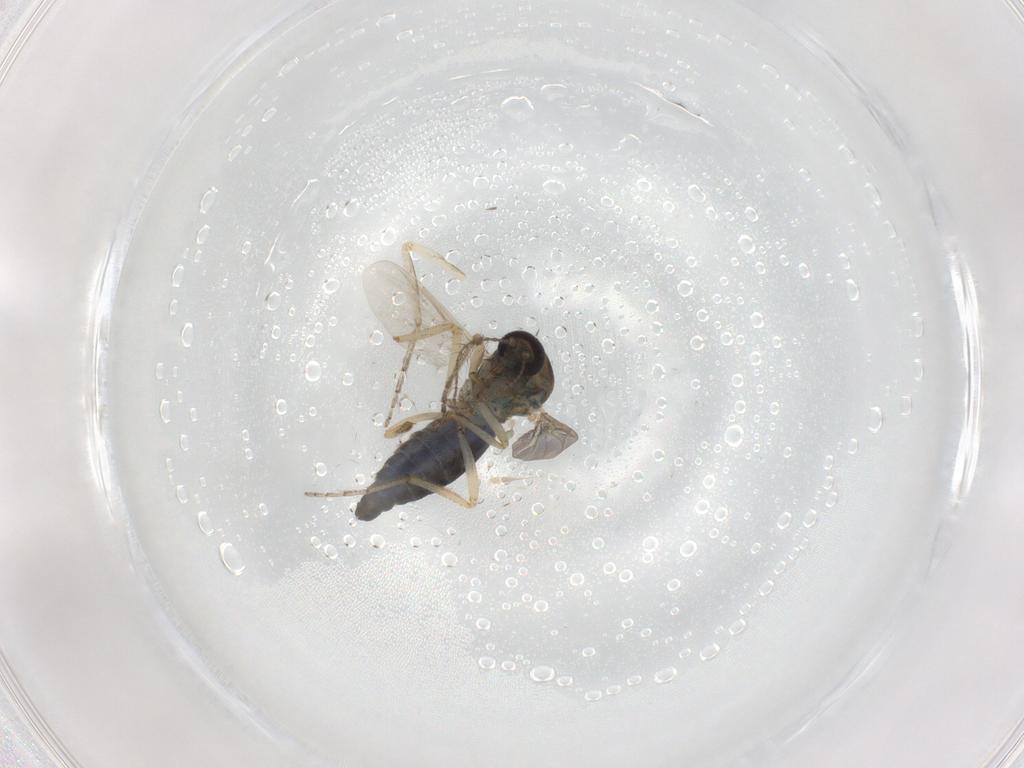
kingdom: Animalia
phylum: Arthropoda
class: Insecta
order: Diptera
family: Ceratopogonidae
